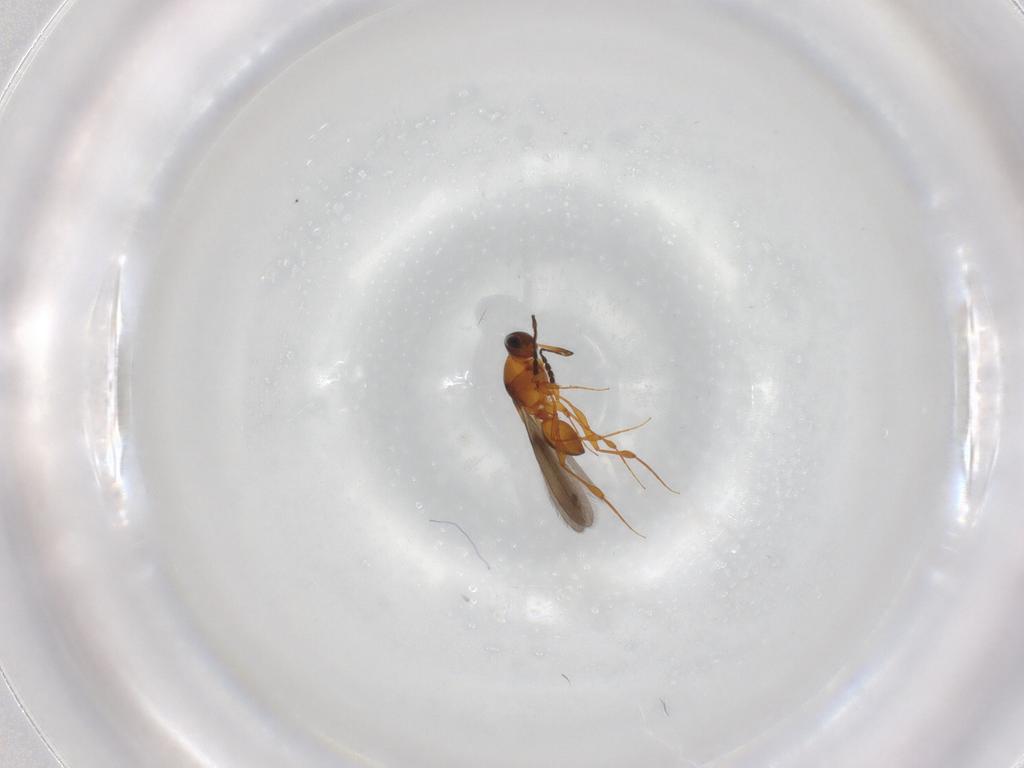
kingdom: Animalia
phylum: Arthropoda
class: Insecta
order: Hymenoptera
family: Platygastridae
